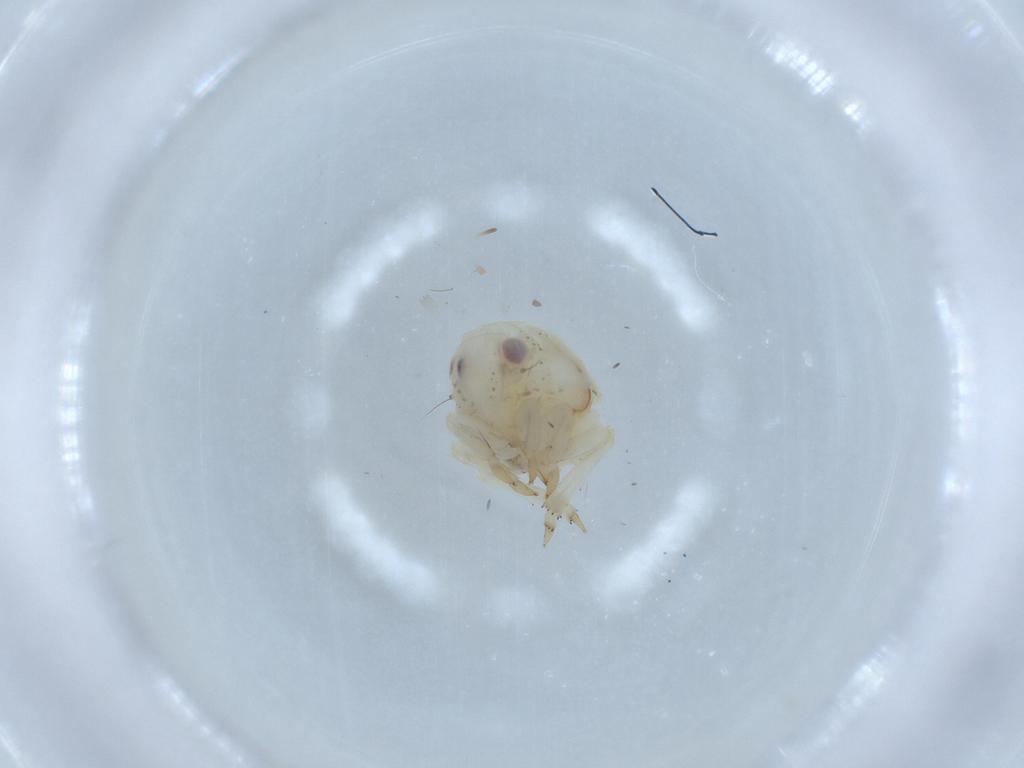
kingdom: Animalia
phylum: Arthropoda
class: Insecta
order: Hemiptera
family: Acanaloniidae
